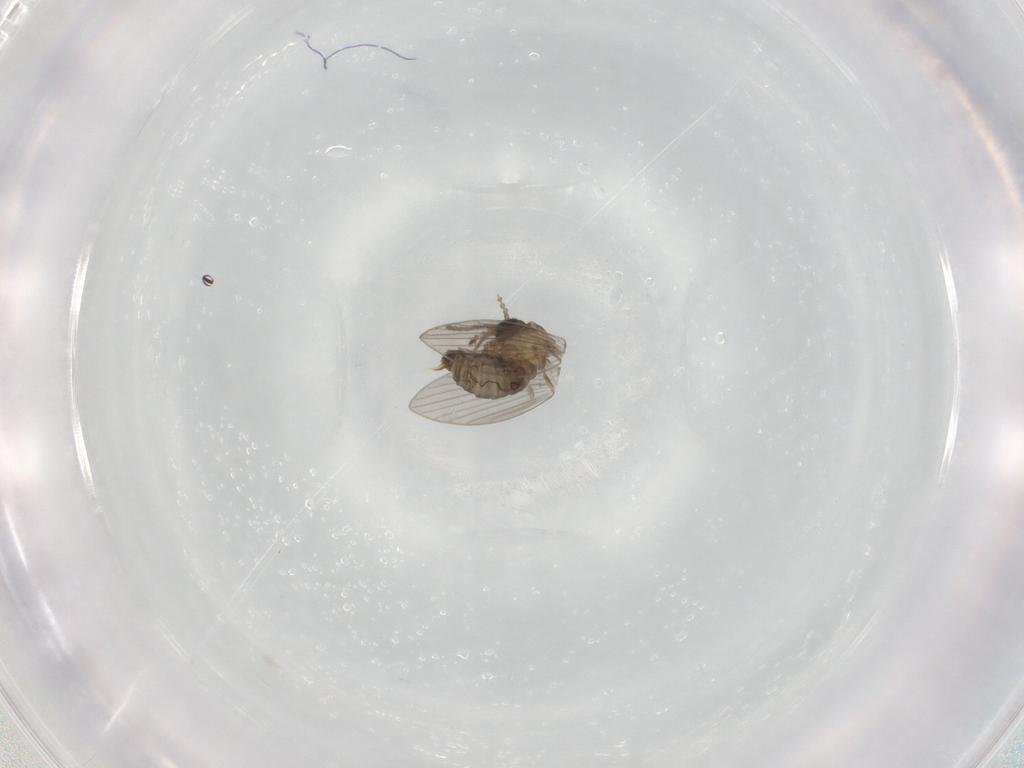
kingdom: Animalia
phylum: Arthropoda
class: Insecta
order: Diptera
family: Psychodidae
